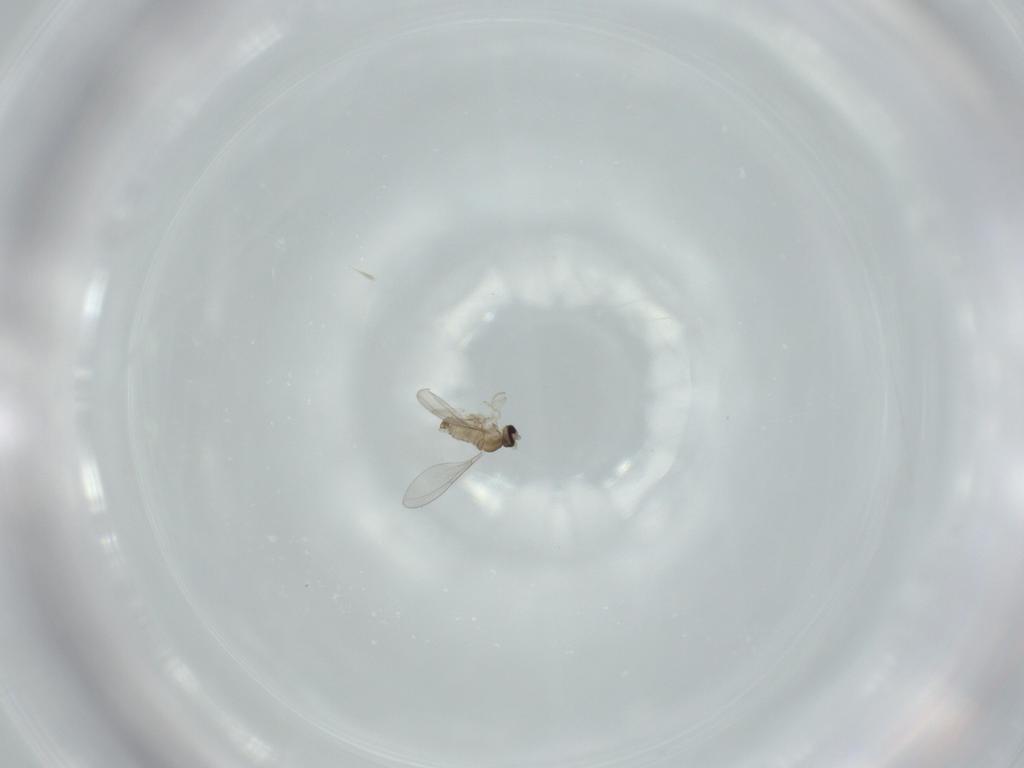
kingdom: Animalia
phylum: Arthropoda
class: Insecta
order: Diptera
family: Cecidomyiidae
